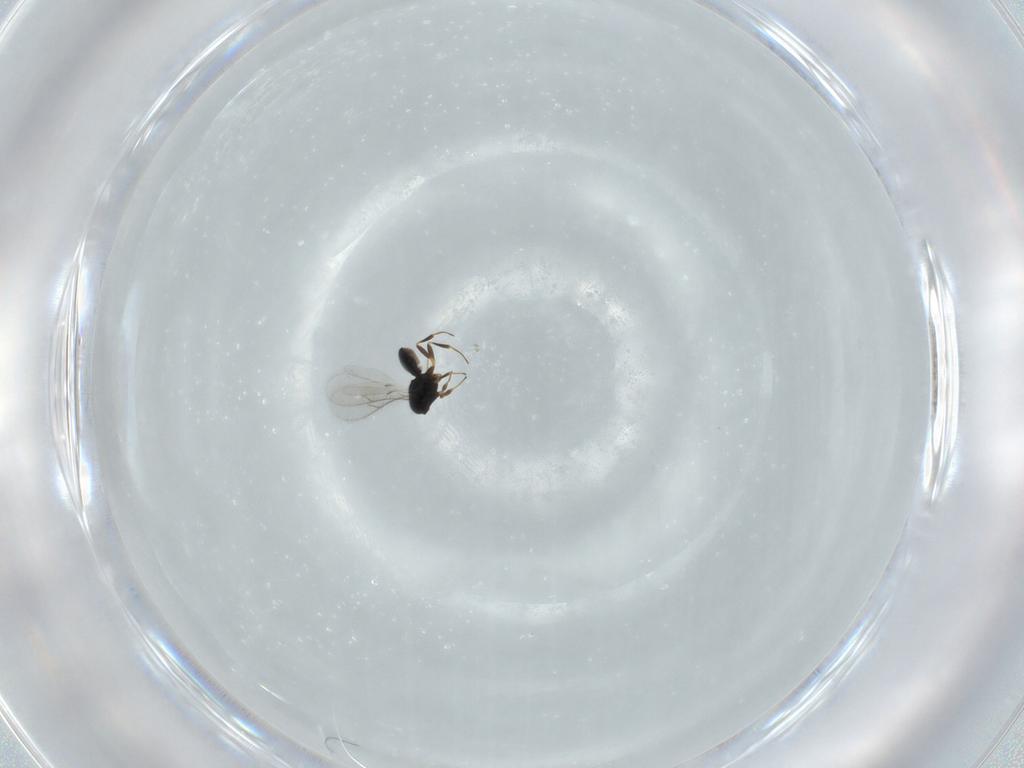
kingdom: Animalia
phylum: Arthropoda
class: Insecta
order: Hymenoptera
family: Scelionidae
